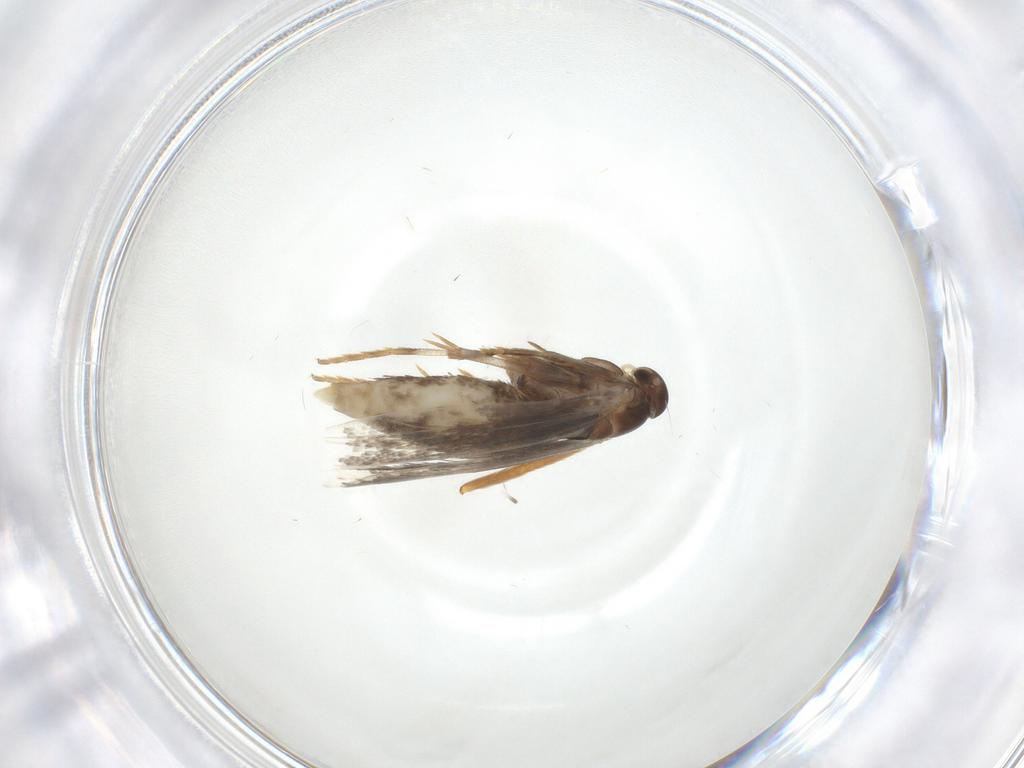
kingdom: Animalia
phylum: Arthropoda
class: Insecta
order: Lepidoptera
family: Elachistidae
